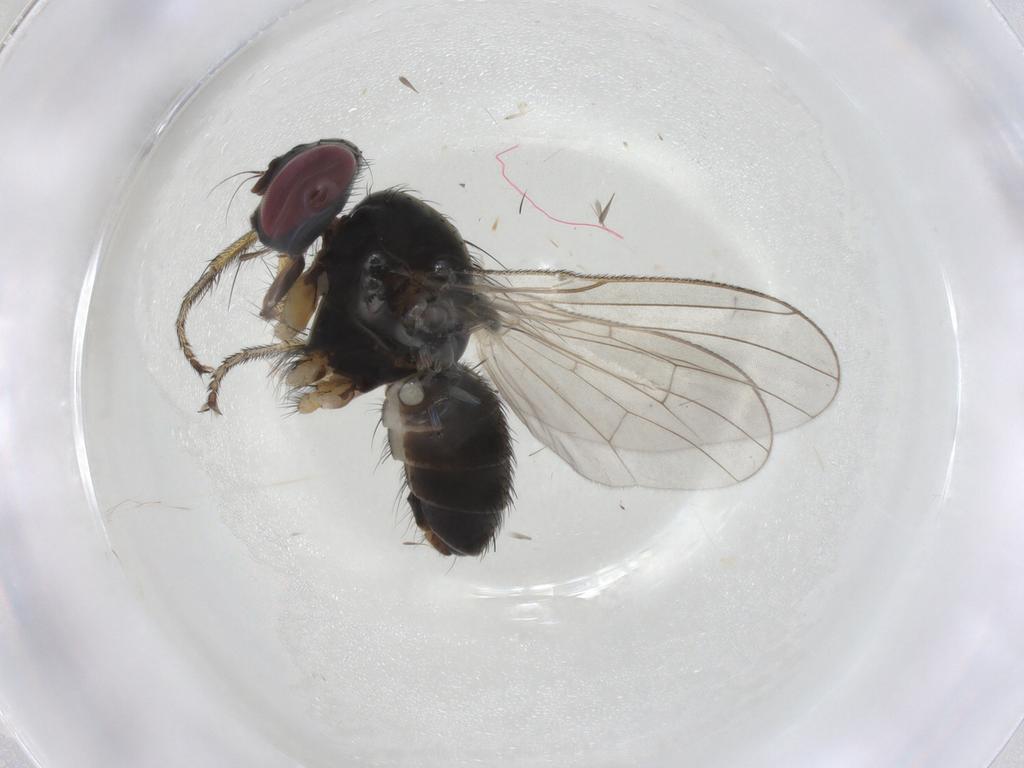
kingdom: Animalia
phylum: Arthropoda
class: Insecta
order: Diptera
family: Muscidae
